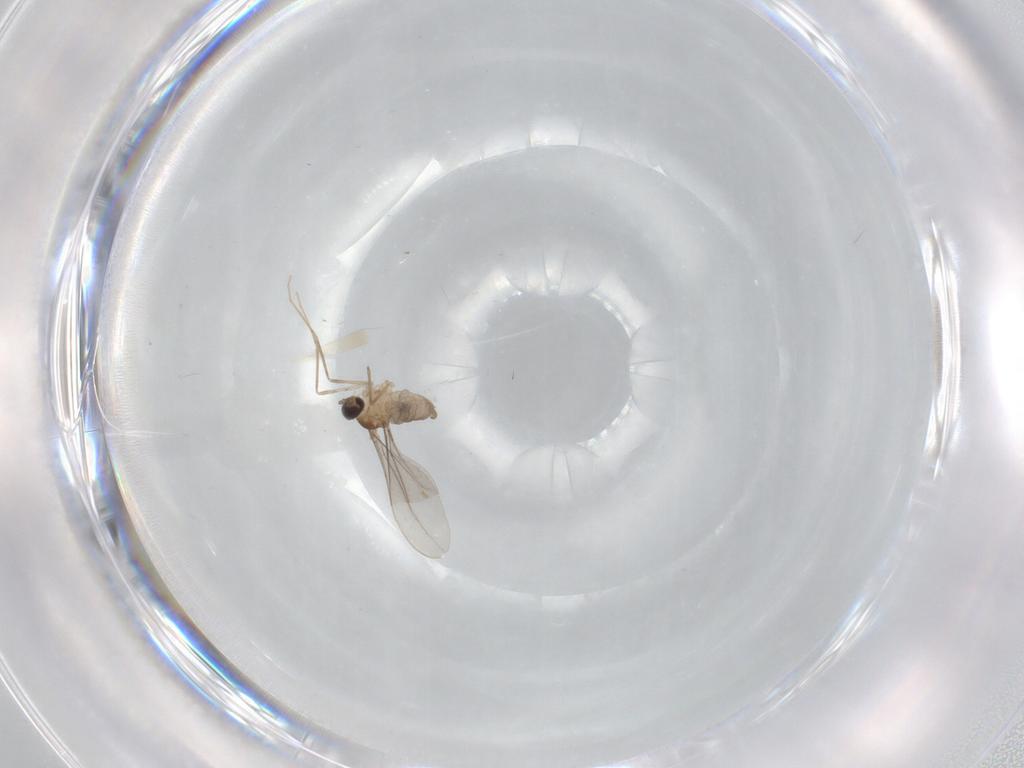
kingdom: Animalia
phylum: Arthropoda
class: Insecta
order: Diptera
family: Cecidomyiidae
